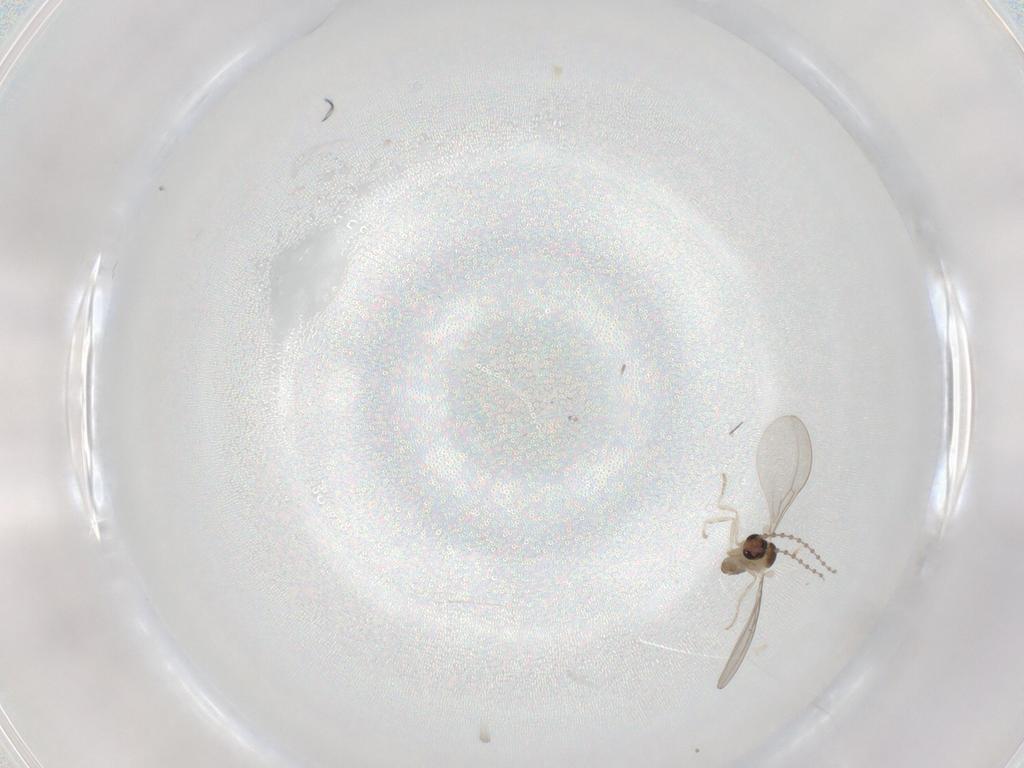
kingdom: Animalia
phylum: Arthropoda
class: Insecta
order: Diptera
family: Cecidomyiidae
